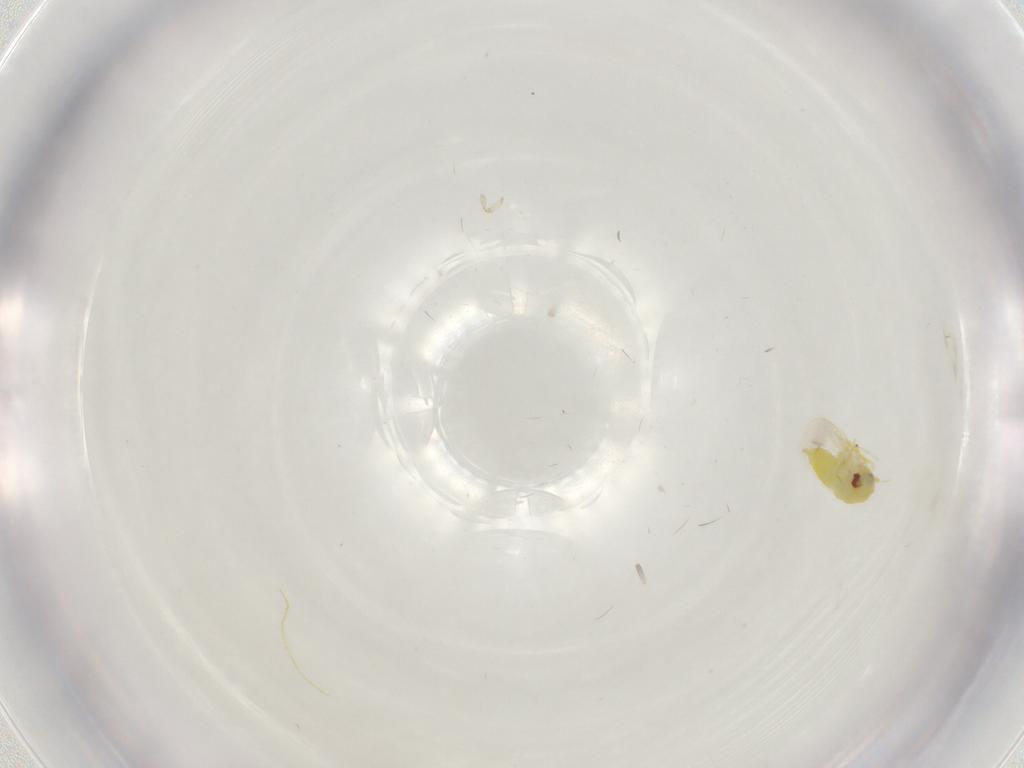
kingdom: Animalia
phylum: Arthropoda
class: Insecta
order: Hemiptera
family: Aleyrodidae
